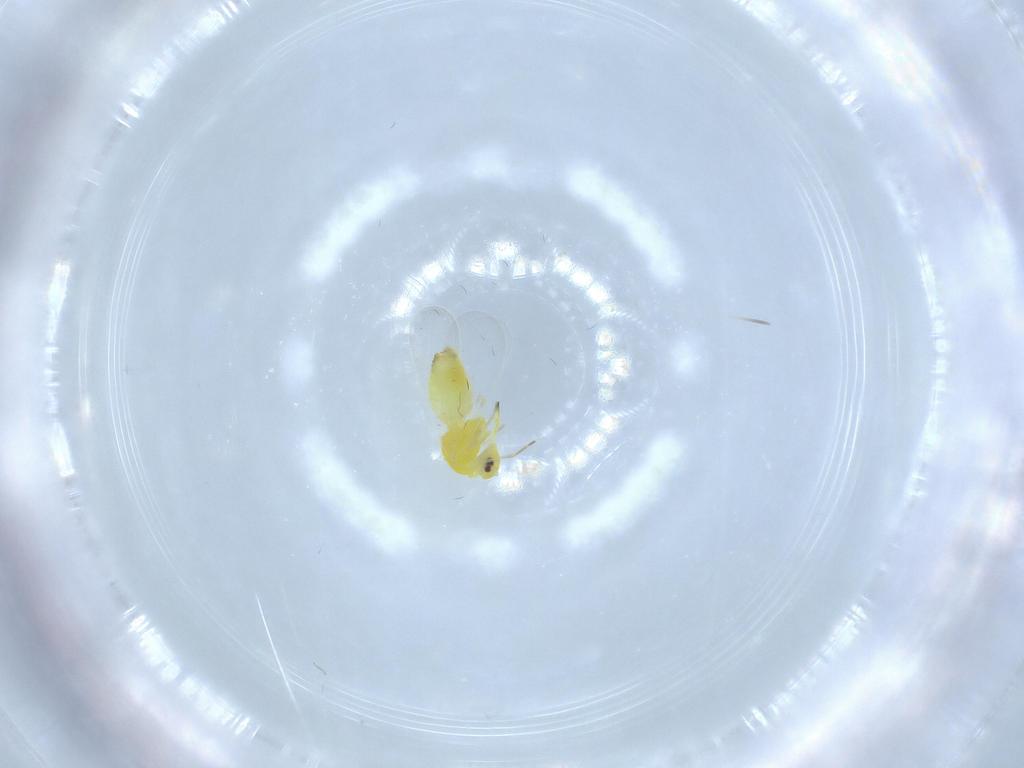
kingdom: Animalia
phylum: Arthropoda
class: Insecta
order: Hemiptera
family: Aleyrodidae
